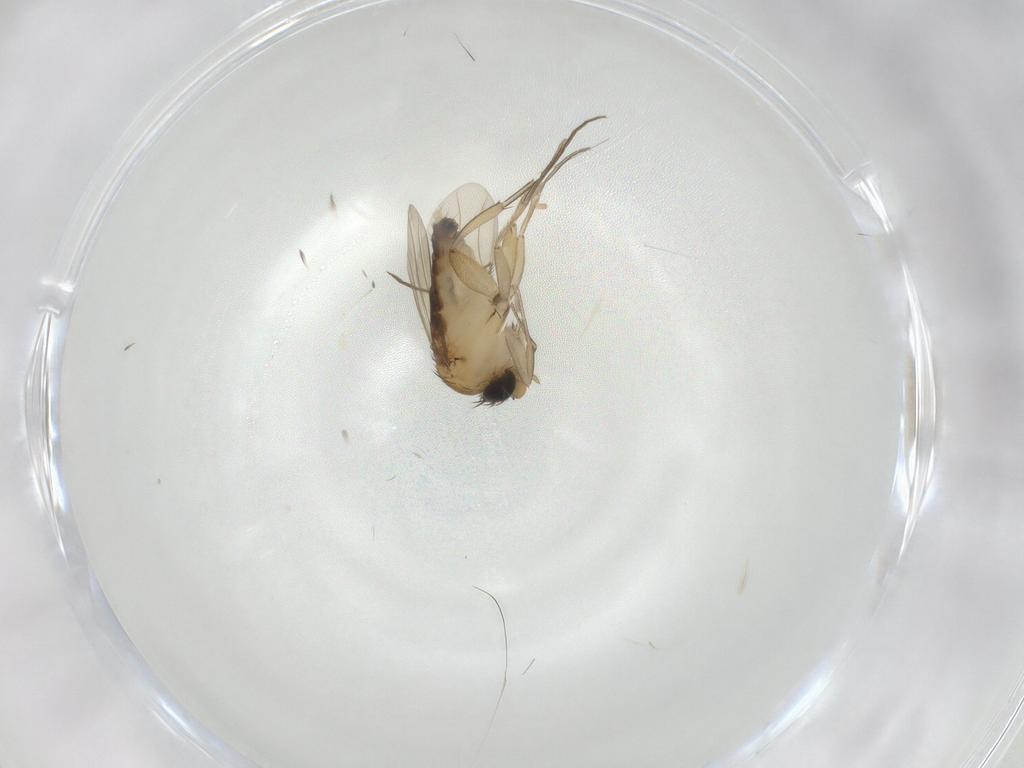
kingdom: Animalia
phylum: Arthropoda
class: Insecta
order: Diptera
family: Phoridae
